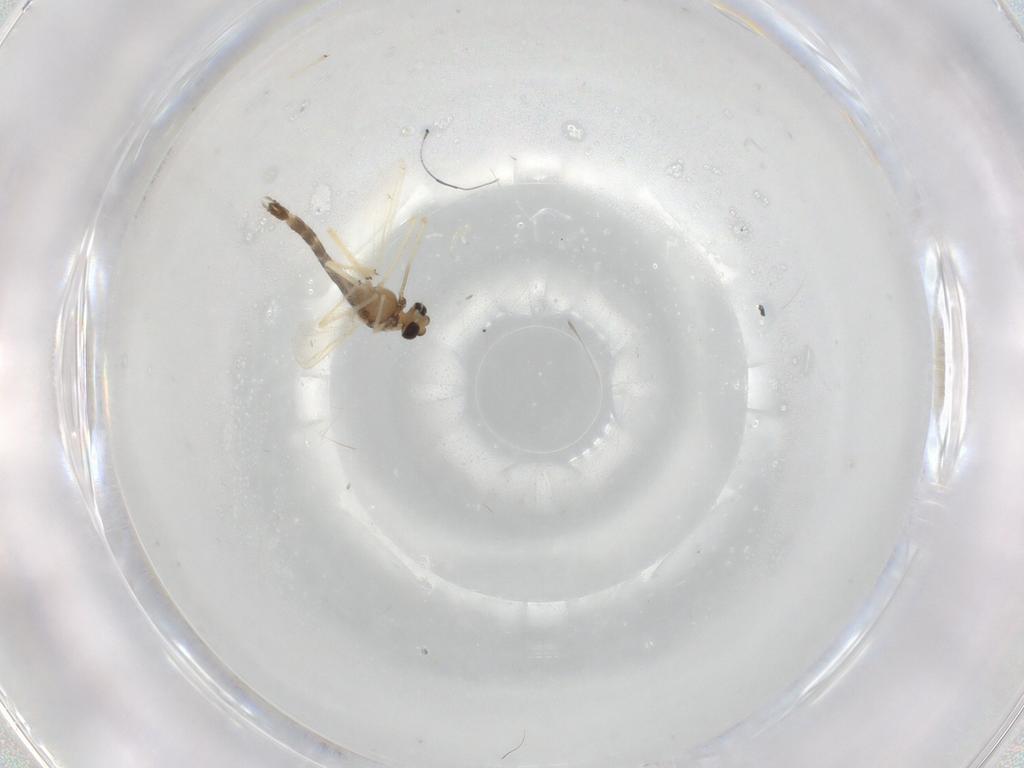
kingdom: Animalia
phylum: Arthropoda
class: Insecta
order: Diptera
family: Chironomidae
